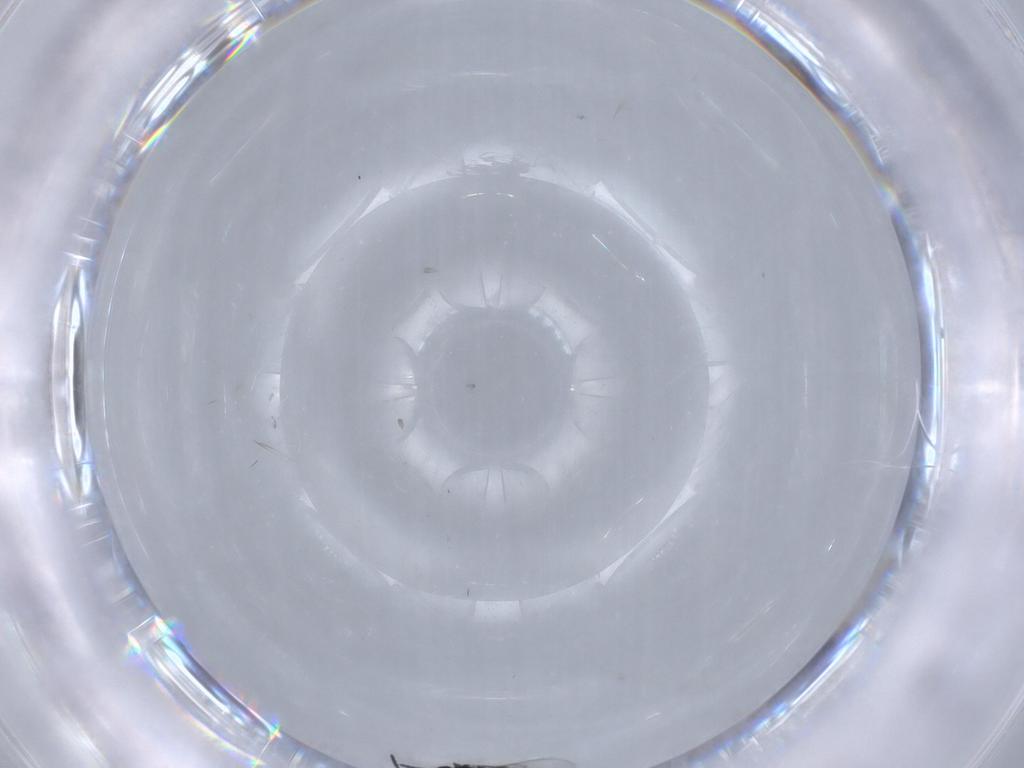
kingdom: Animalia
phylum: Arthropoda
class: Insecta
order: Hymenoptera
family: Scelionidae
